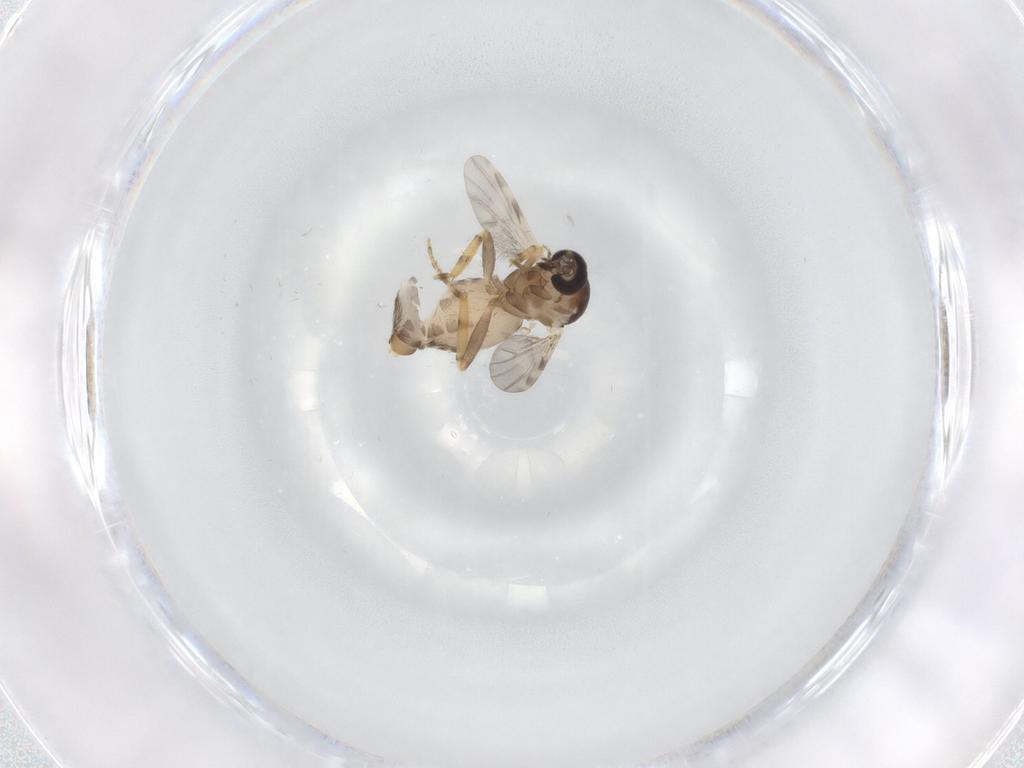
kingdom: Animalia
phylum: Arthropoda
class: Insecta
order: Diptera
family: Ceratopogonidae
